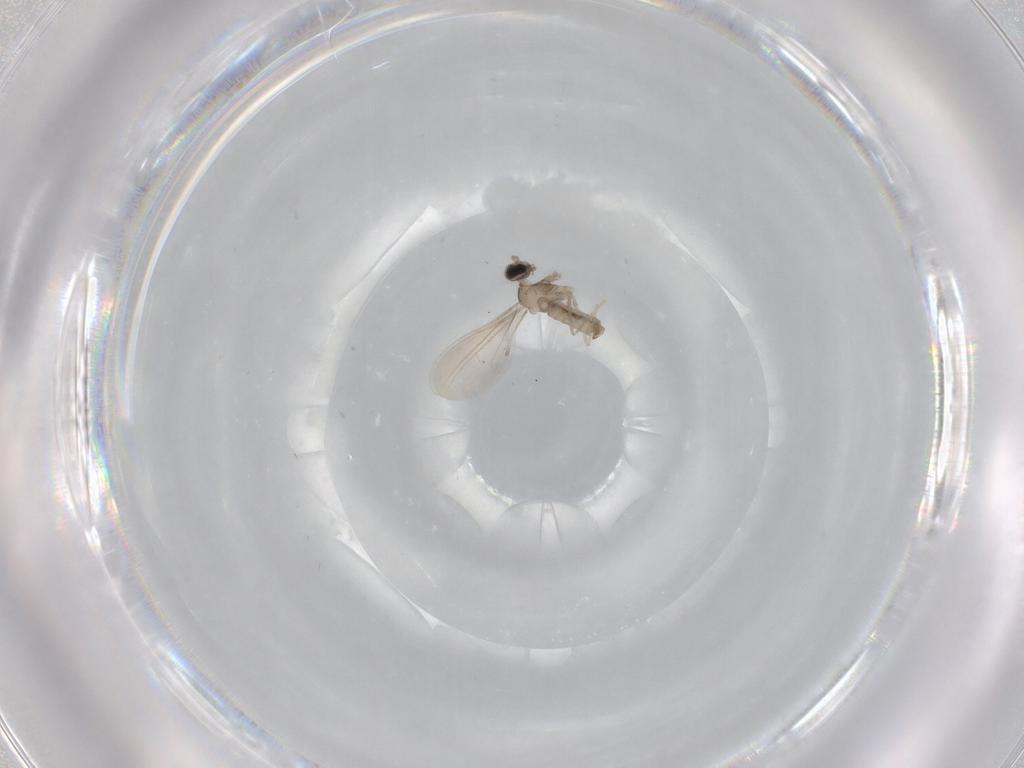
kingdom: Animalia
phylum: Arthropoda
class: Insecta
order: Diptera
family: Cecidomyiidae
